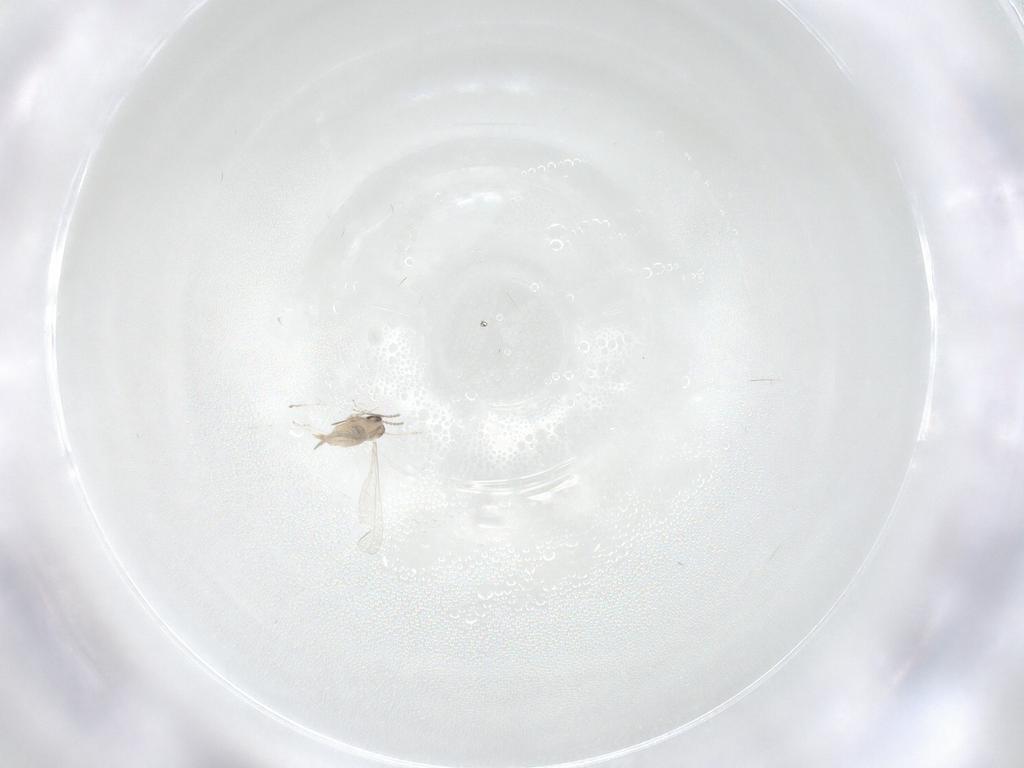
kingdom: Animalia
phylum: Arthropoda
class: Insecta
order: Diptera
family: Cecidomyiidae
